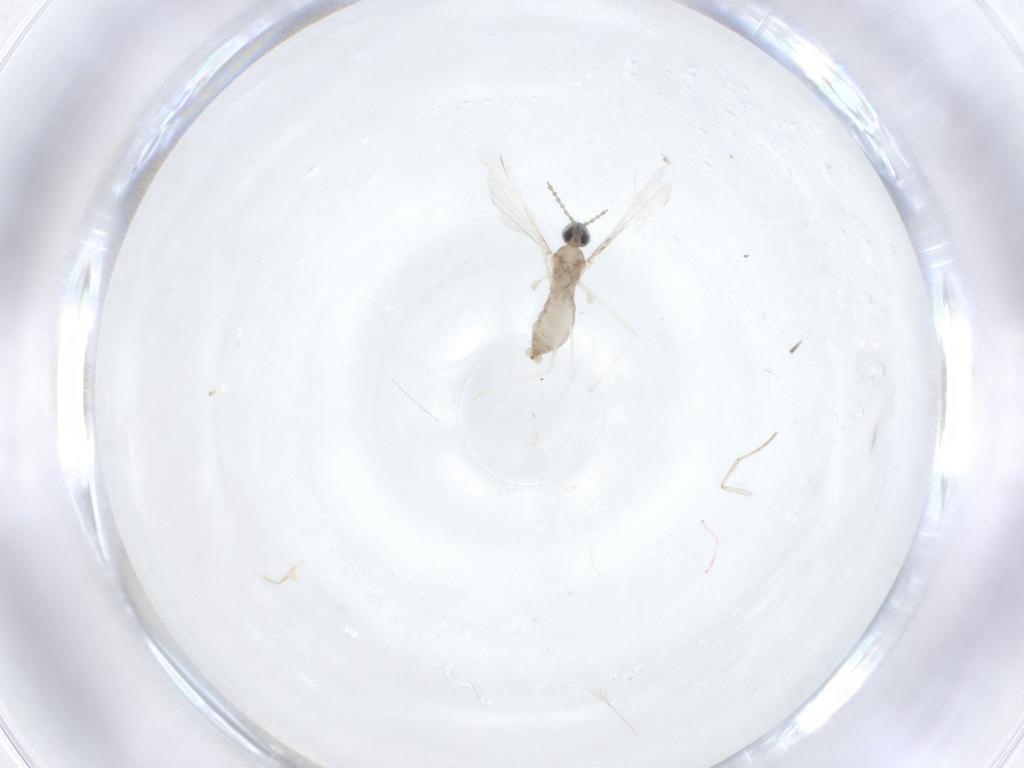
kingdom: Animalia
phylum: Arthropoda
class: Insecta
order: Diptera
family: Cecidomyiidae
